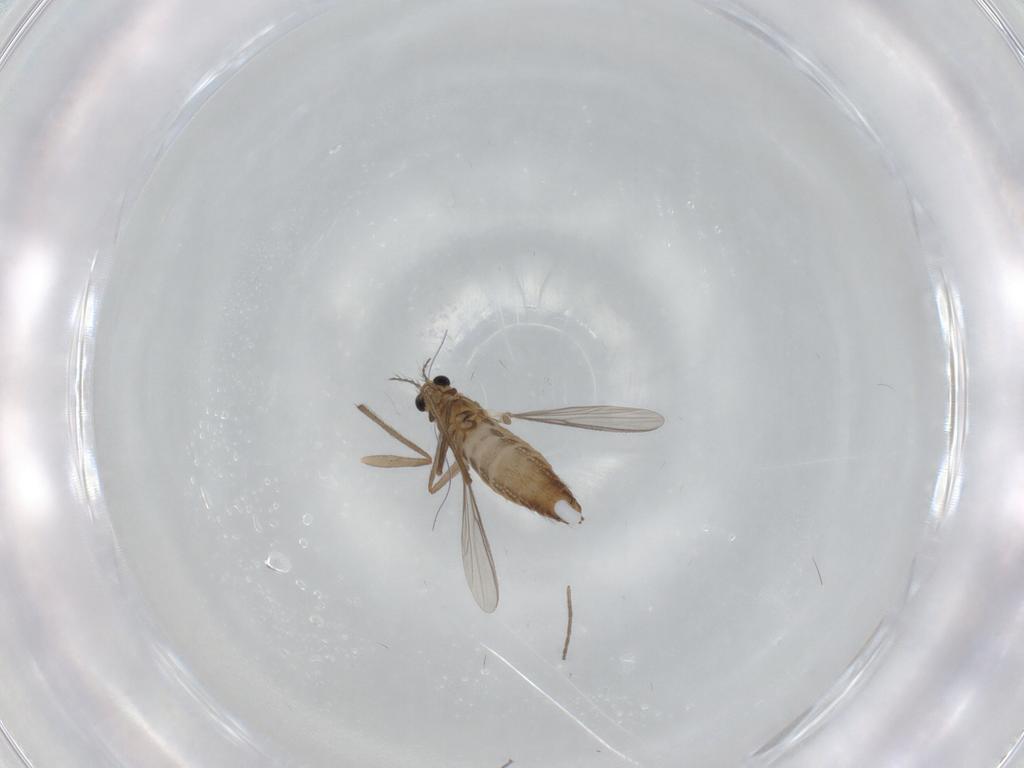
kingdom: Animalia
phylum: Arthropoda
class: Insecta
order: Diptera
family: Chironomidae
